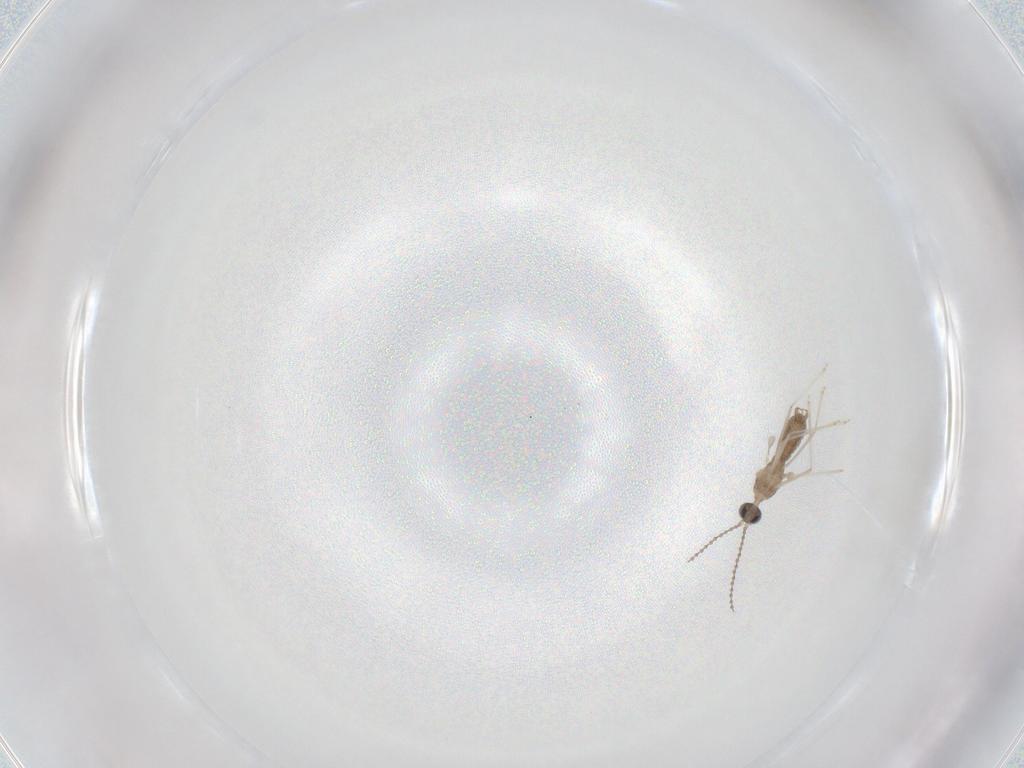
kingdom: Animalia
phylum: Arthropoda
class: Insecta
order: Diptera
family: Cecidomyiidae
